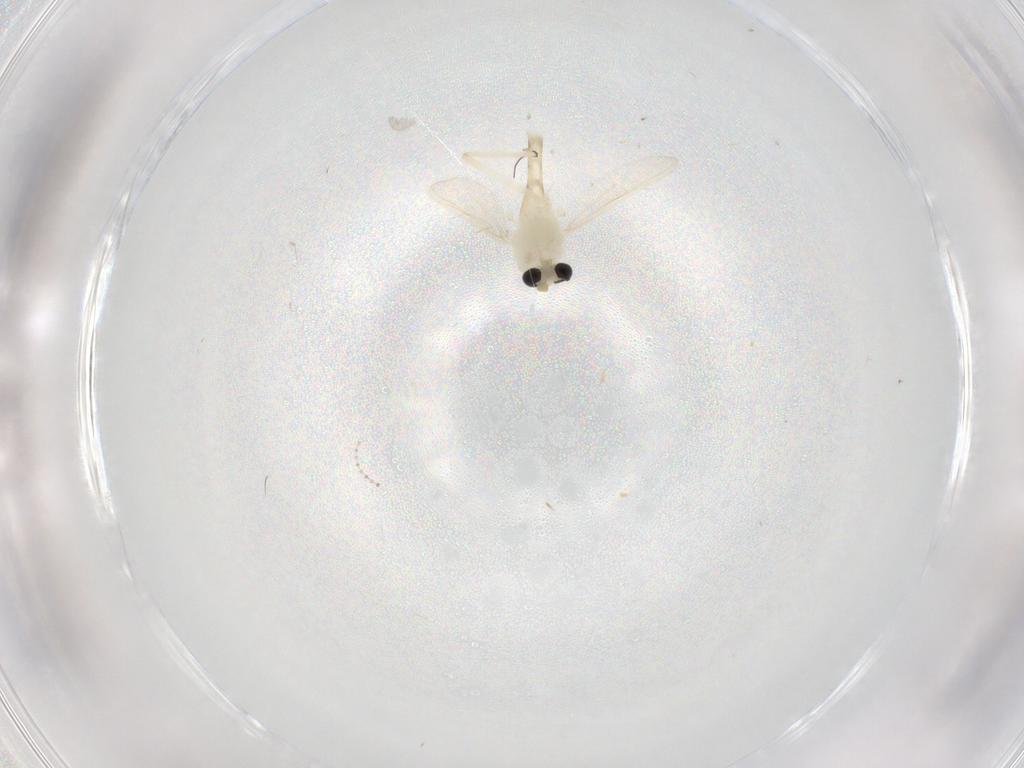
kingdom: Animalia
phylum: Arthropoda
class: Insecta
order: Diptera
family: Chironomidae
